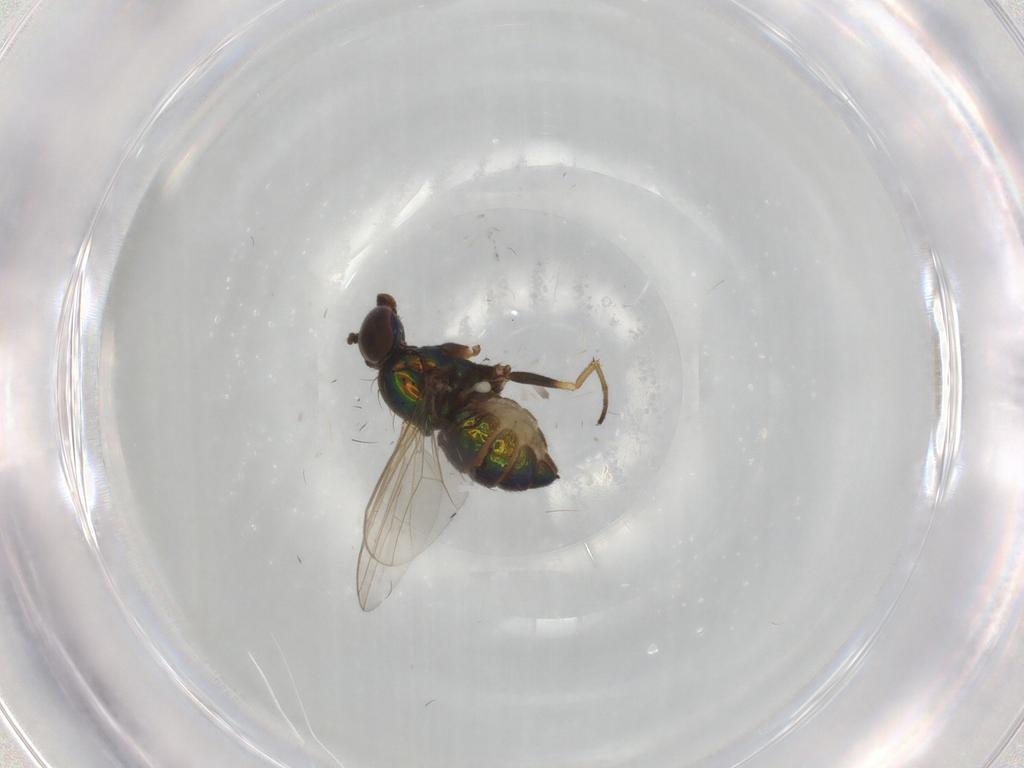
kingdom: Animalia
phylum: Arthropoda
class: Insecta
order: Diptera
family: Dolichopodidae
